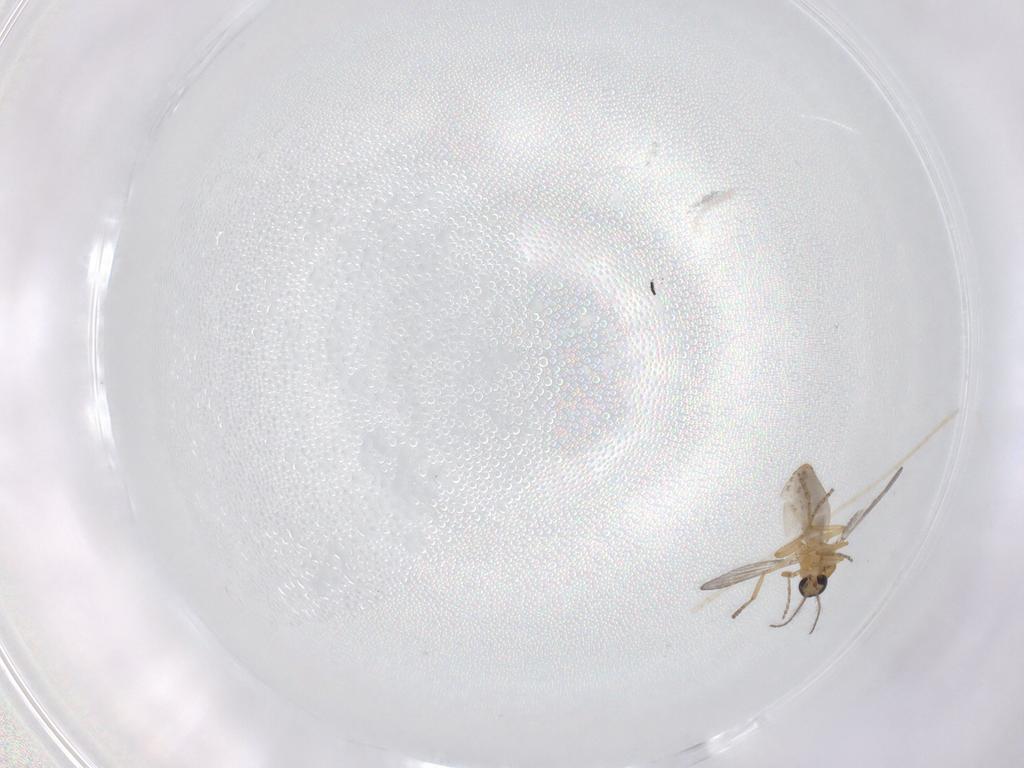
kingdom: Animalia
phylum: Arthropoda
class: Insecta
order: Diptera
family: Ceratopogonidae
